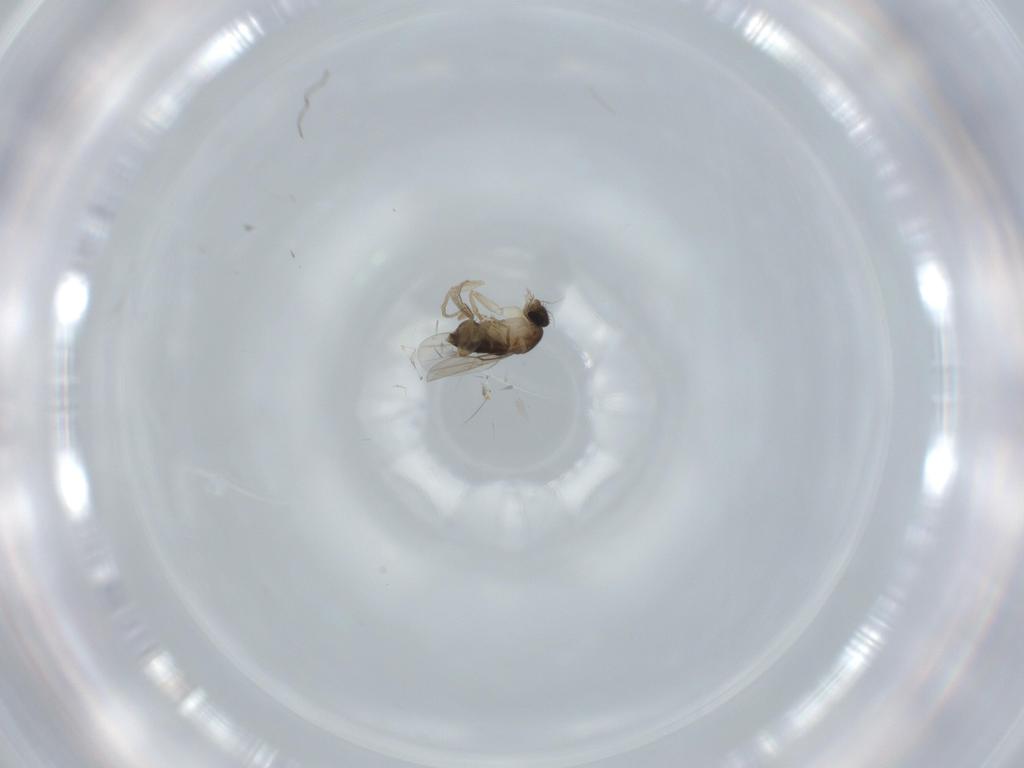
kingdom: Animalia
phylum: Arthropoda
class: Insecta
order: Diptera
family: Phoridae
